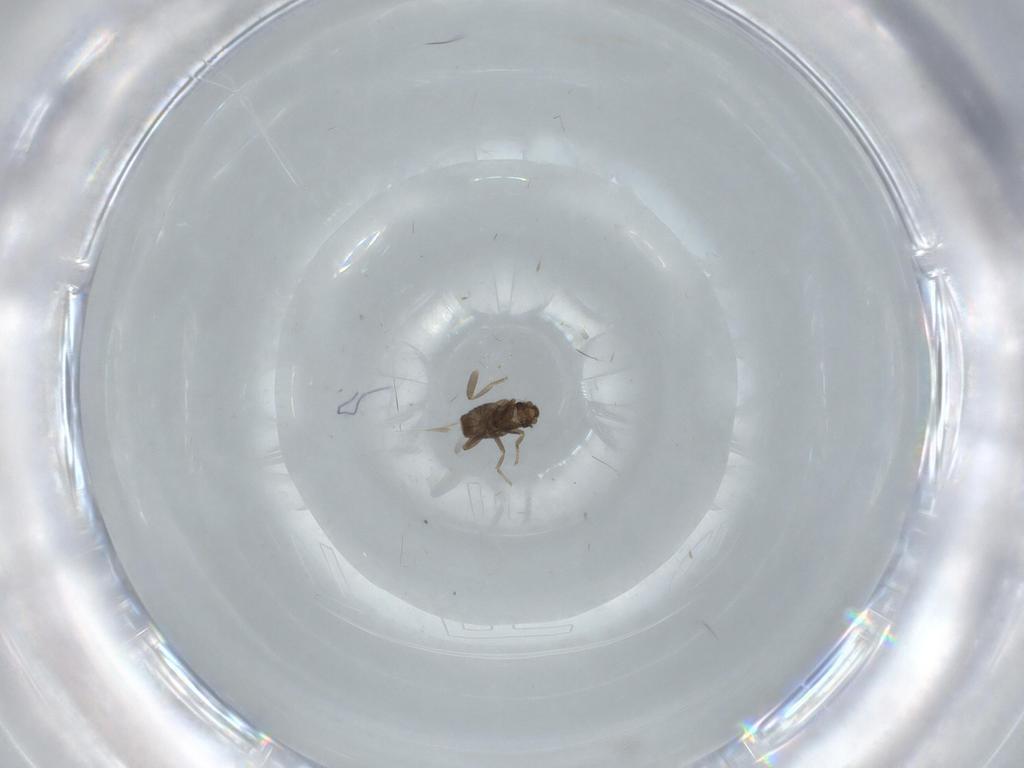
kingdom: Animalia
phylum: Arthropoda
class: Insecta
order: Diptera
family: Phoridae
